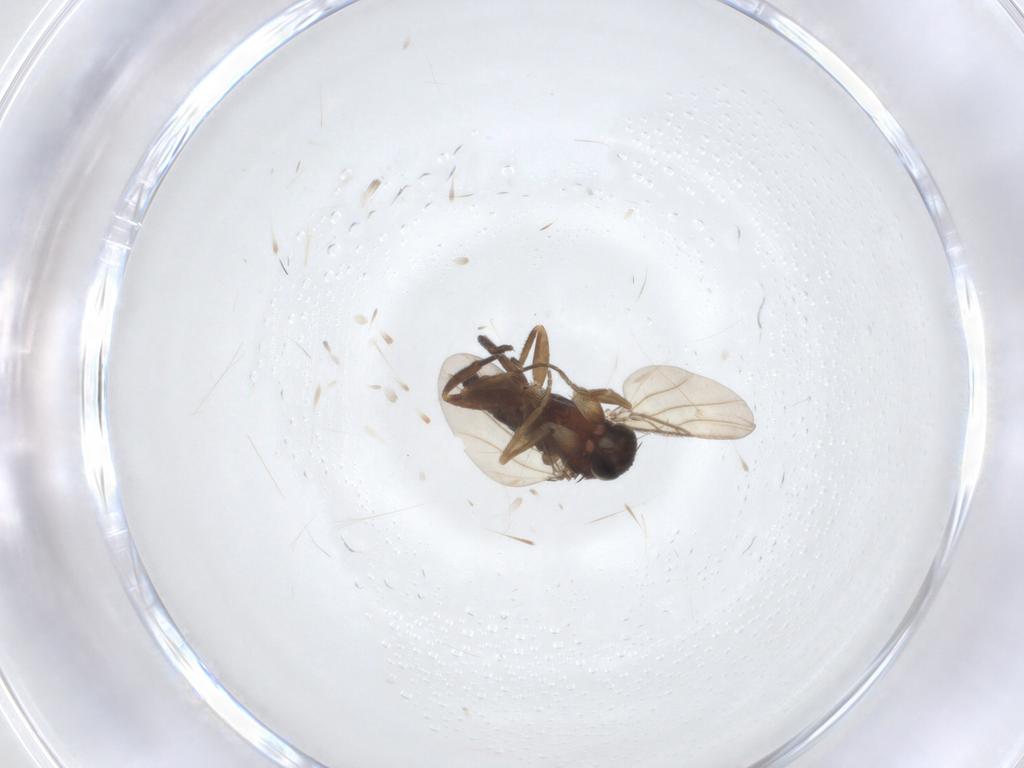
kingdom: Animalia
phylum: Arthropoda
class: Insecta
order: Diptera
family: Phoridae
